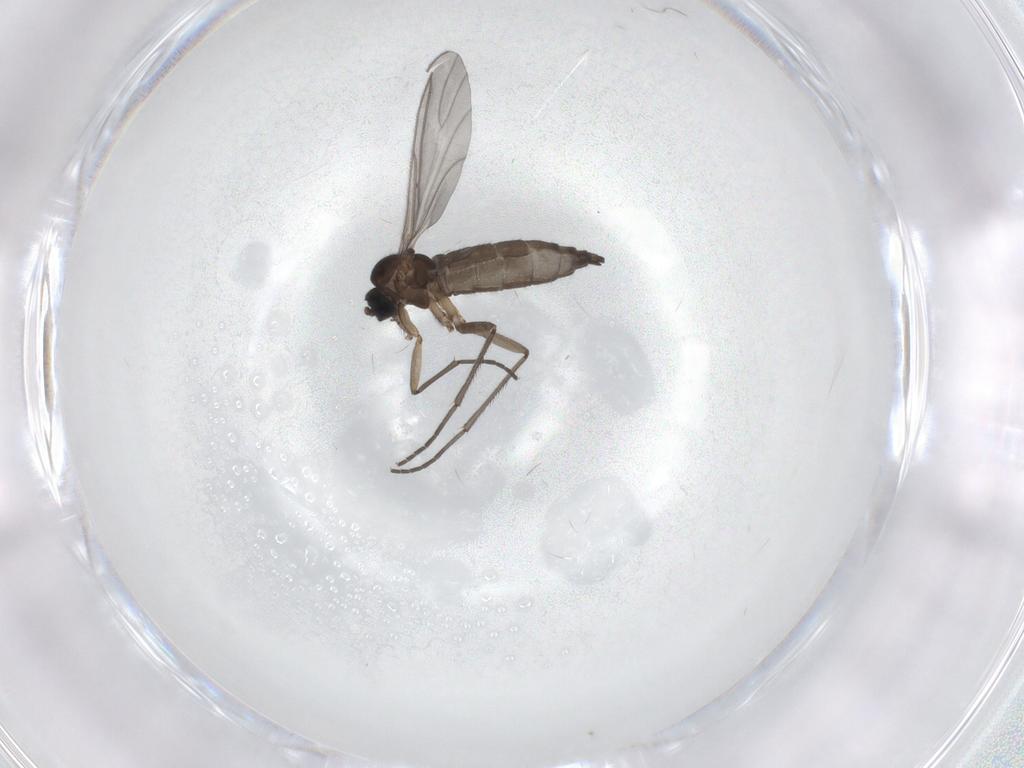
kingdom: Animalia
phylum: Arthropoda
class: Insecta
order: Diptera
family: Sciaridae
